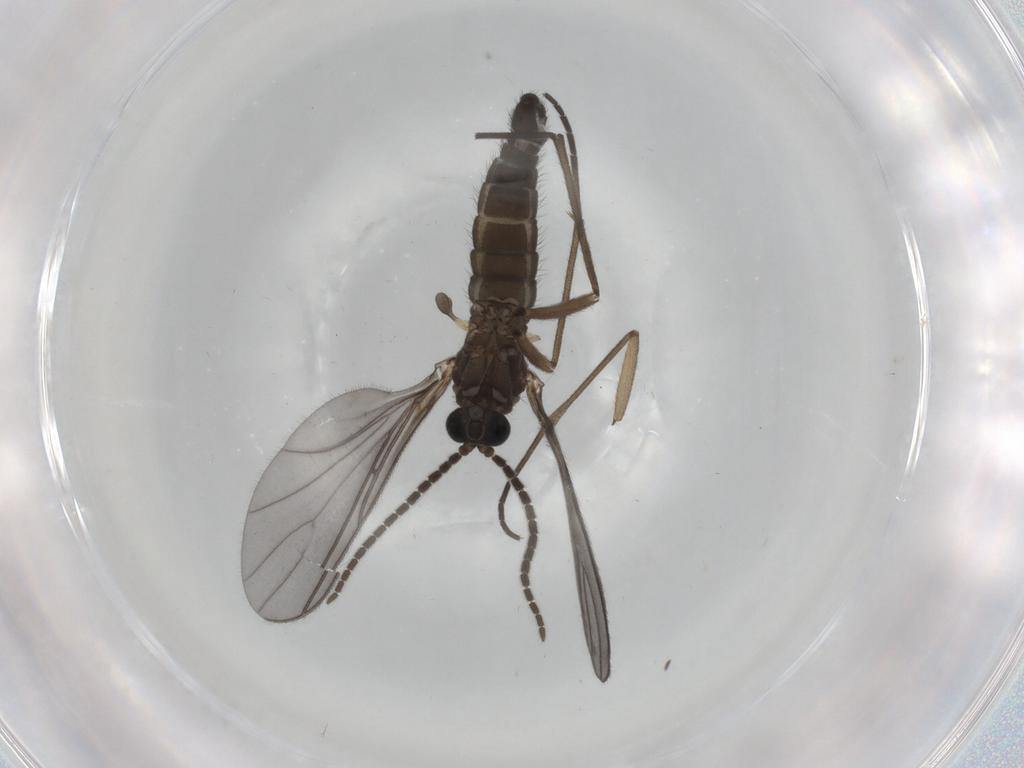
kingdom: Animalia
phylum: Arthropoda
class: Insecta
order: Diptera
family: Sciaridae
